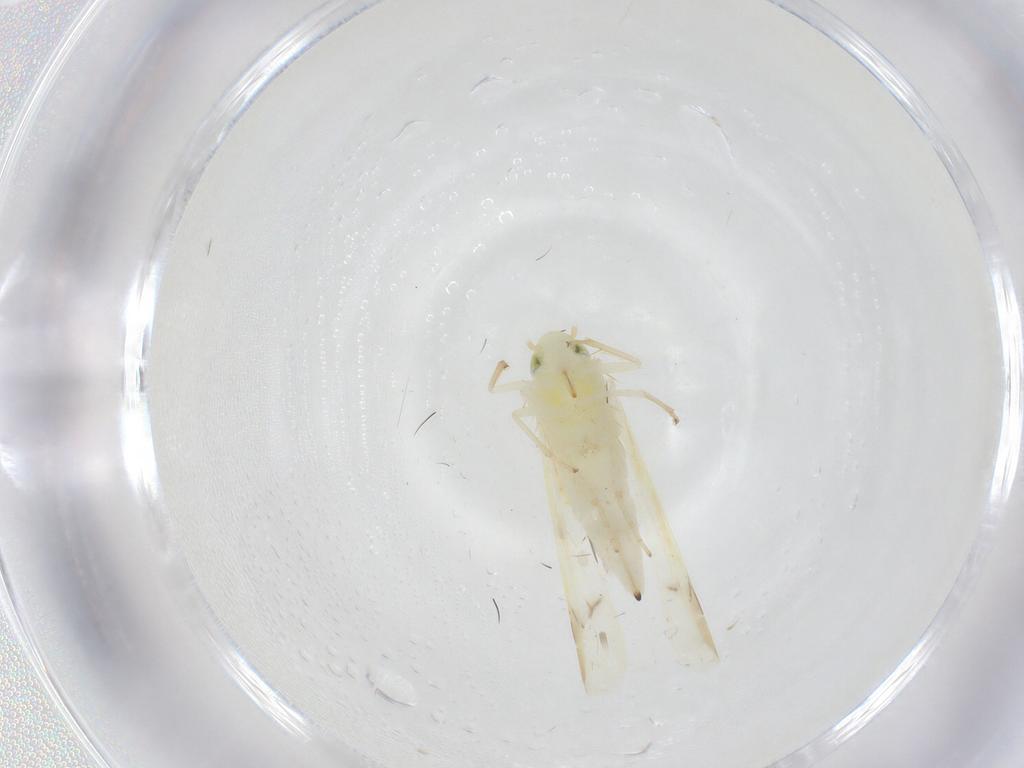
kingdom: Animalia
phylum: Arthropoda
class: Insecta
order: Hemiptera
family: Cicadellidae
